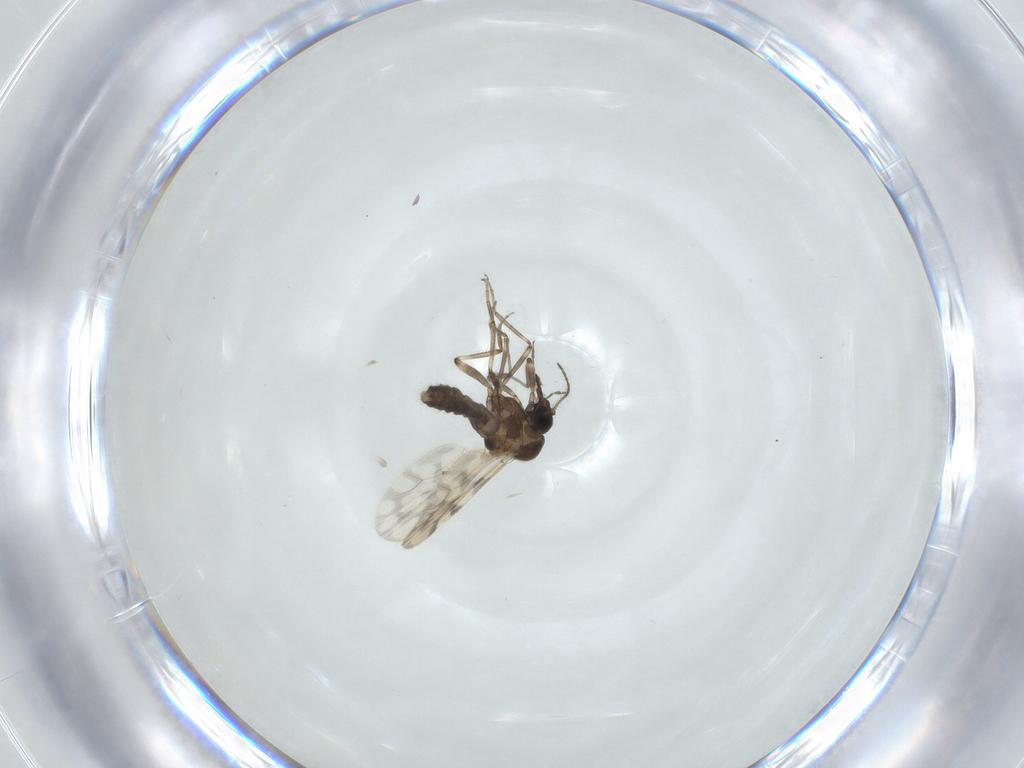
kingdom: Animalia
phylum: Arthropoda
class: Insecta
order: Diptera
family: Ceratopogonidae
